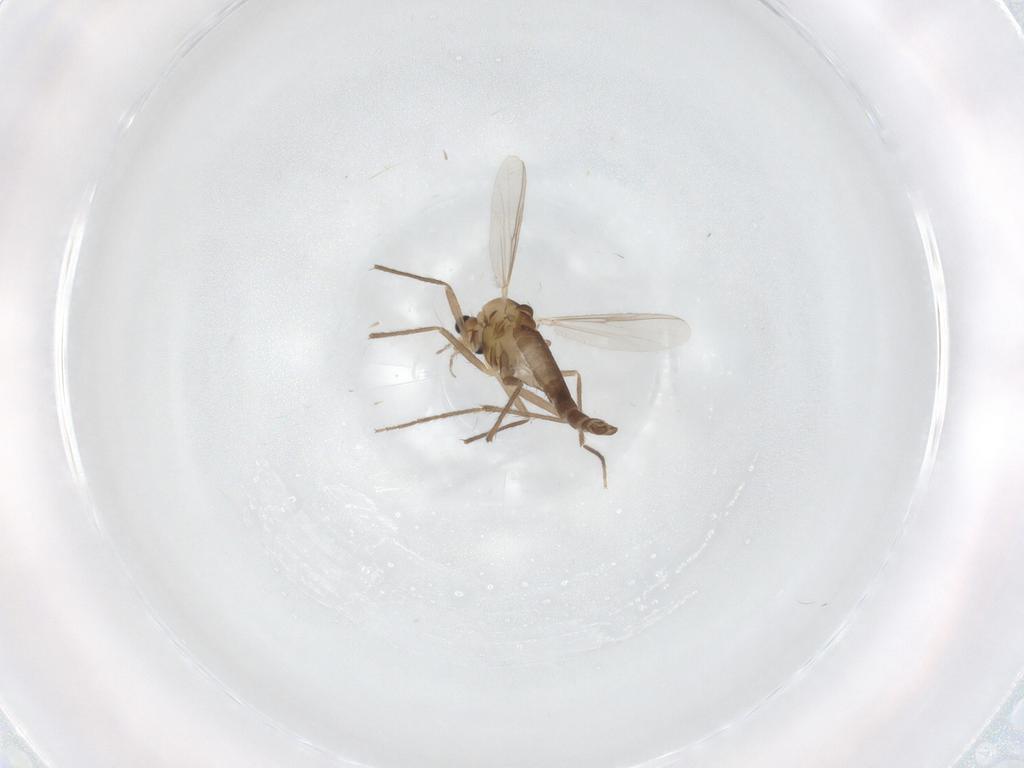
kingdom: Animalia
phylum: Arthropoda
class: Insecta
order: Diptera
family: Chironomidae
